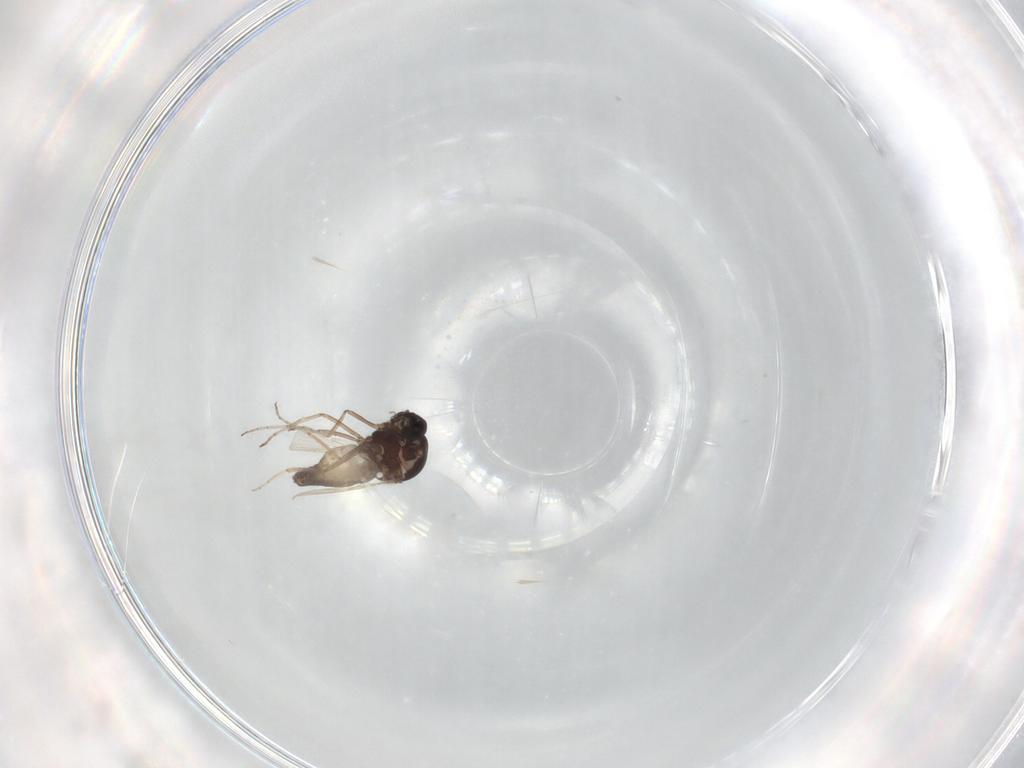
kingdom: Animalia
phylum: Arthropoda
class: Insecta
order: Diptera
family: Ceratopogonidae
